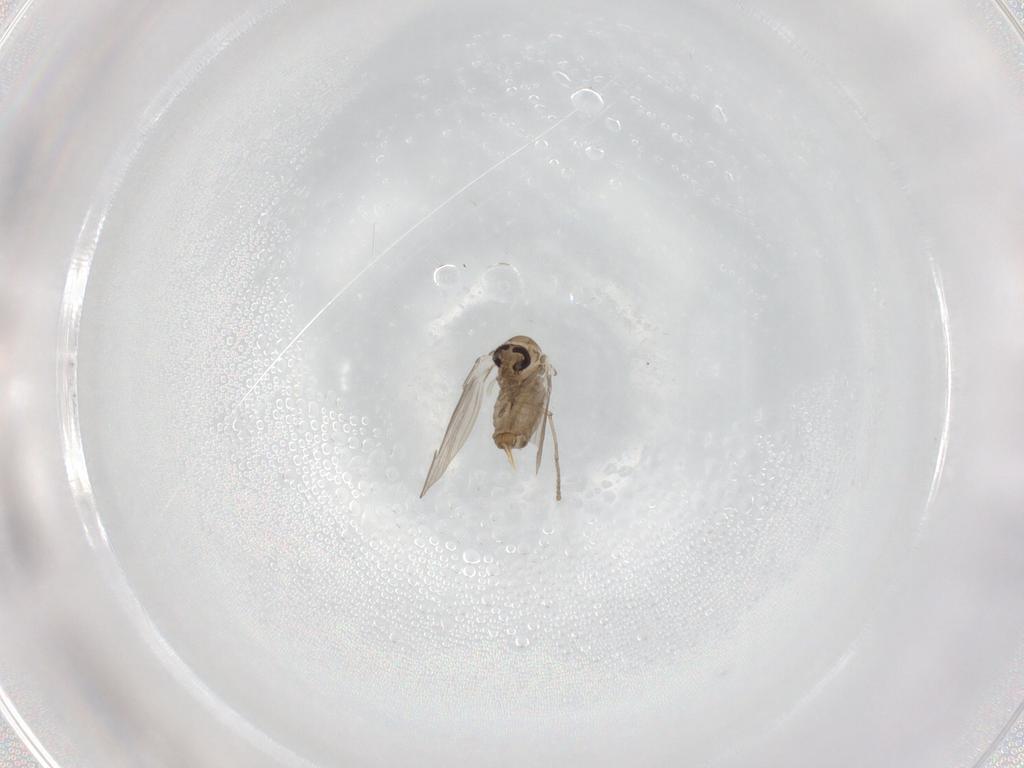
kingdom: Animalia
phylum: Arthropoda
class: Insecta
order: Diptera
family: Psychodidae
